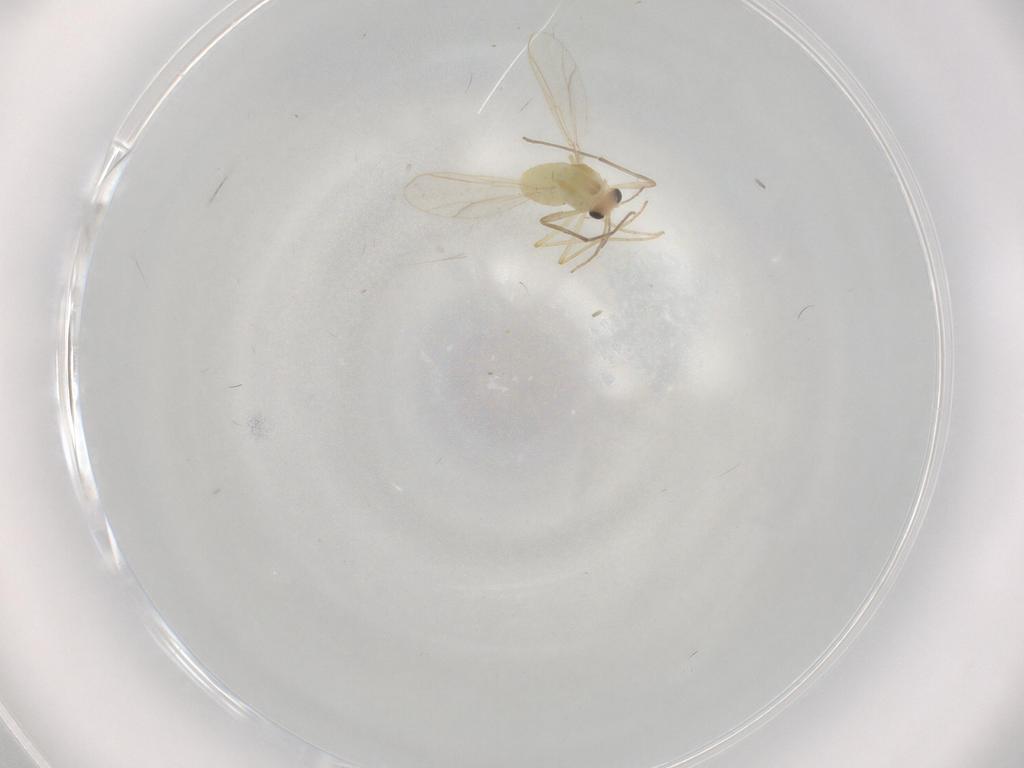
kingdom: Animalia
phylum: Arthropoda
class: Insecta
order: Diptera
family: Chironomidae
